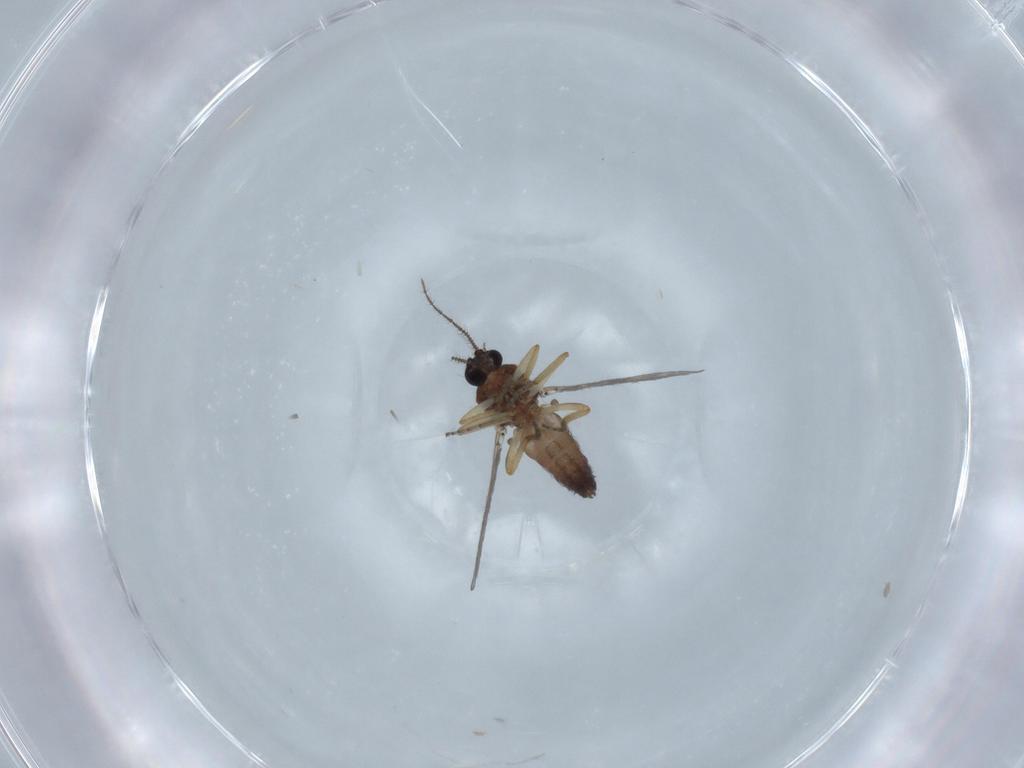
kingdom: Animalia
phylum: Arthropoda
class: Insecta
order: Diptera
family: Ceratopogonidae
